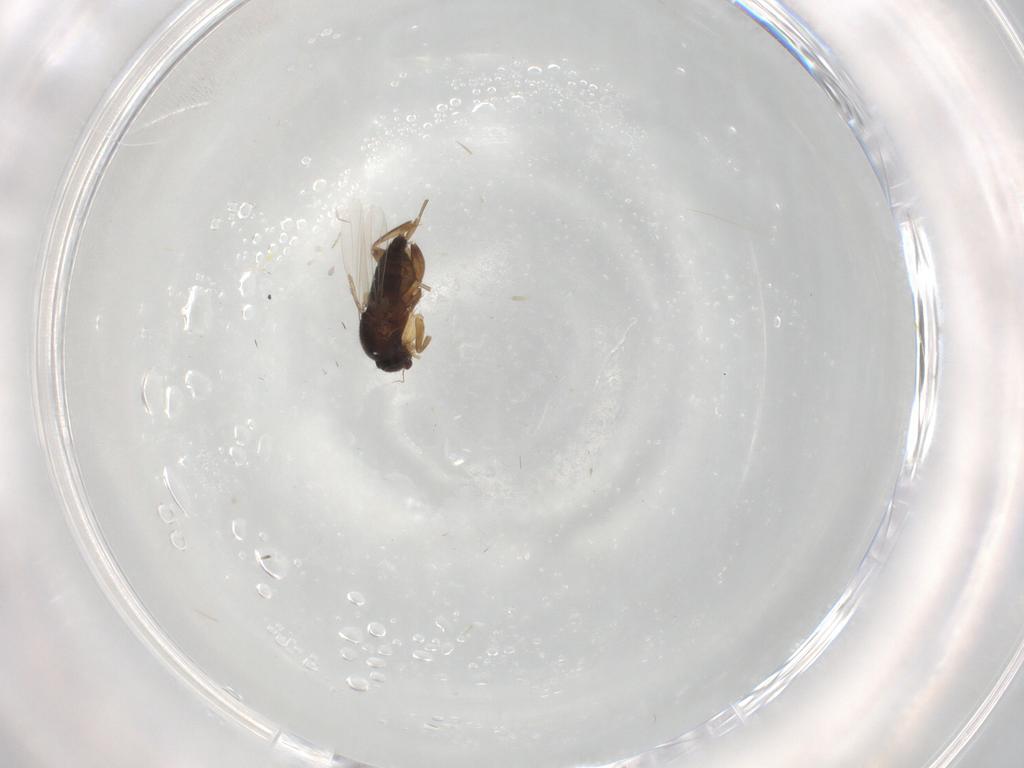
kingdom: Animalia
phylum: Arthropoda
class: Insecta
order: Diptera
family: Phoridae
